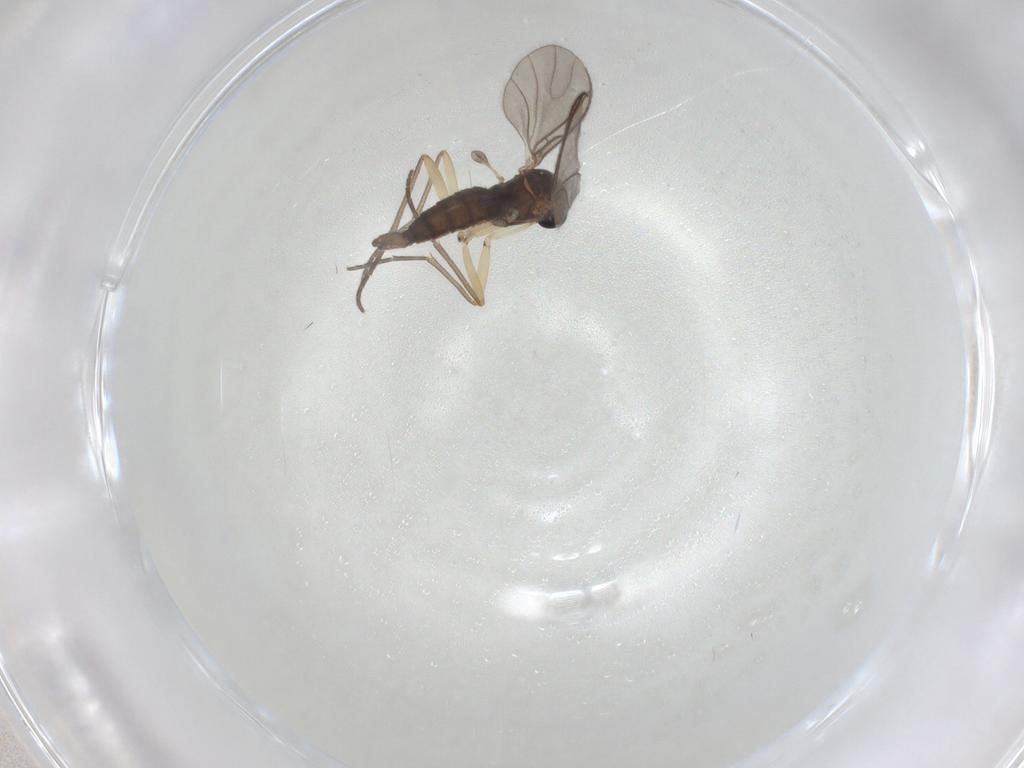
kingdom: Animalia
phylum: Arthropoda
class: Insecta
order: Diptera
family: Sciaridae
